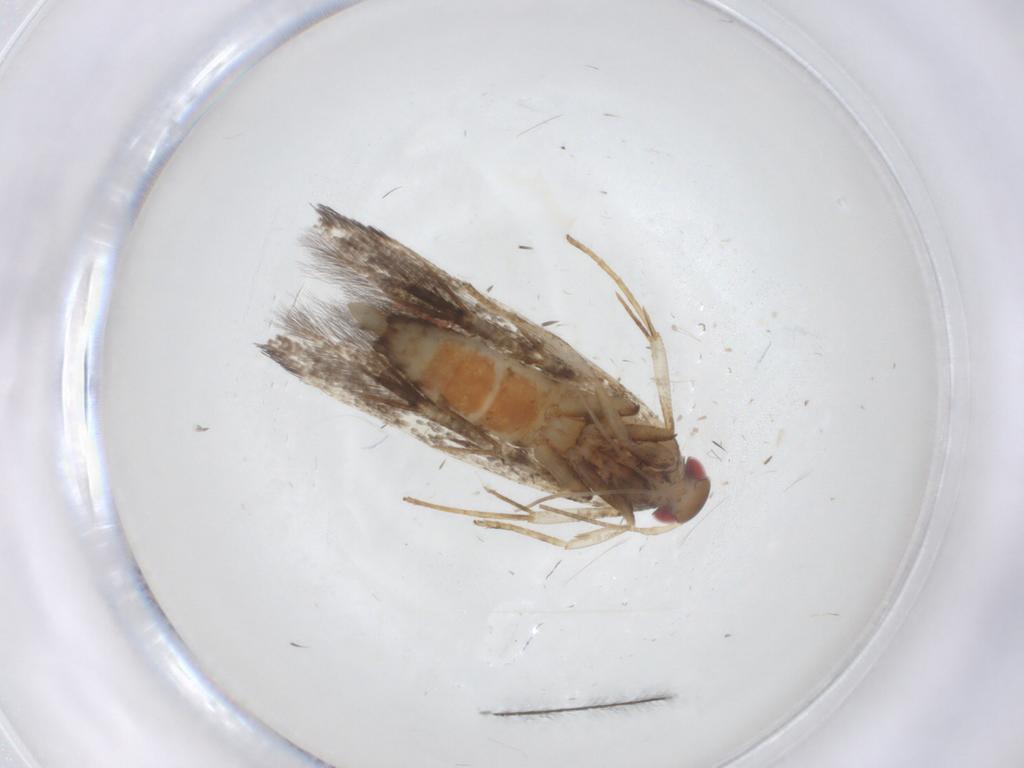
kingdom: Animalia
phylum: Arthropoda
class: Insecta
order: Lepidoptera
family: Gelechiidae
